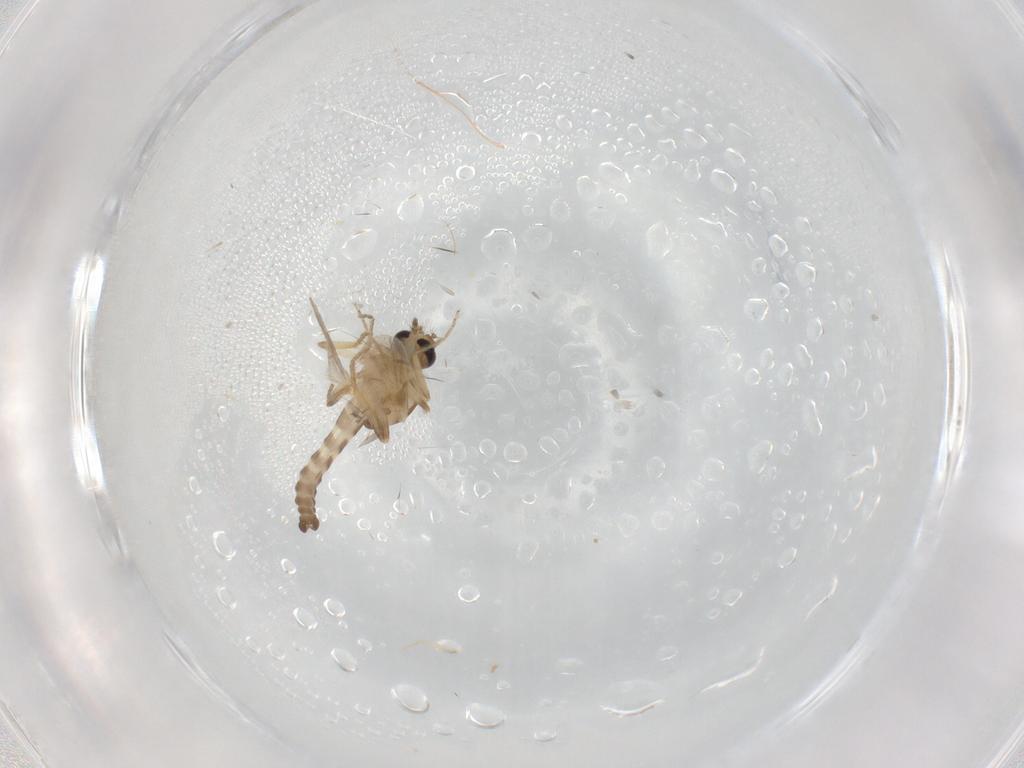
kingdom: Animalia
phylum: Arthropoda
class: Insecta
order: Diptera
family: Ceratopogonidae
